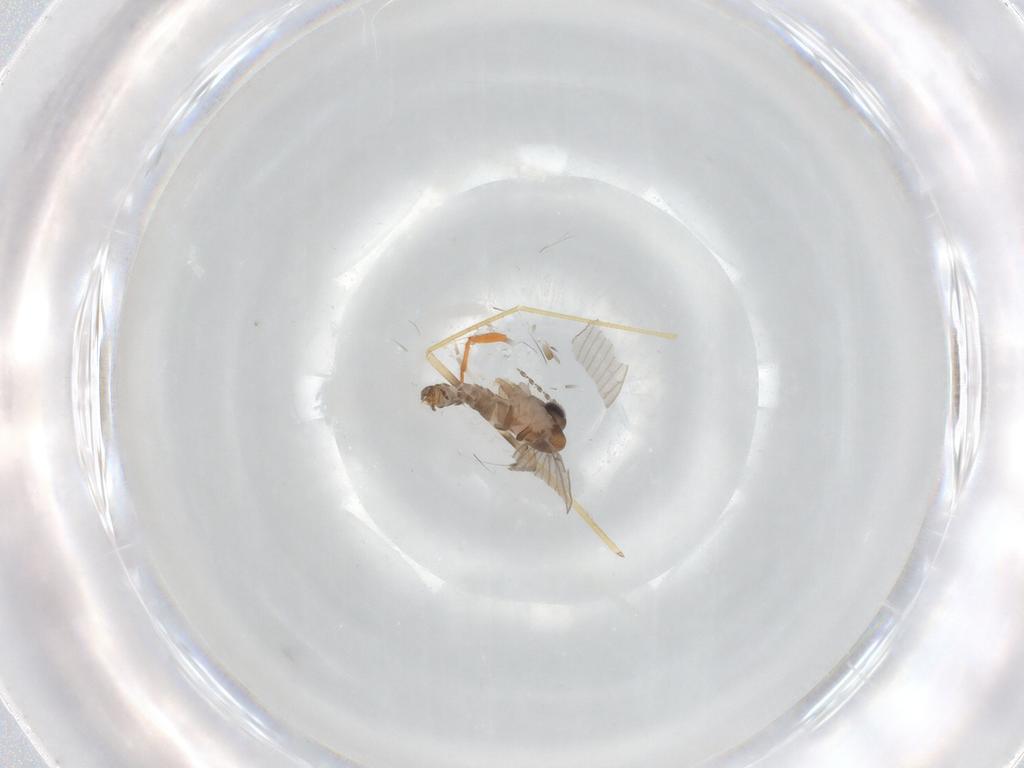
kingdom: Animalia
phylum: Arthropoda
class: Insecta
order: Diptera
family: Limoniidae
